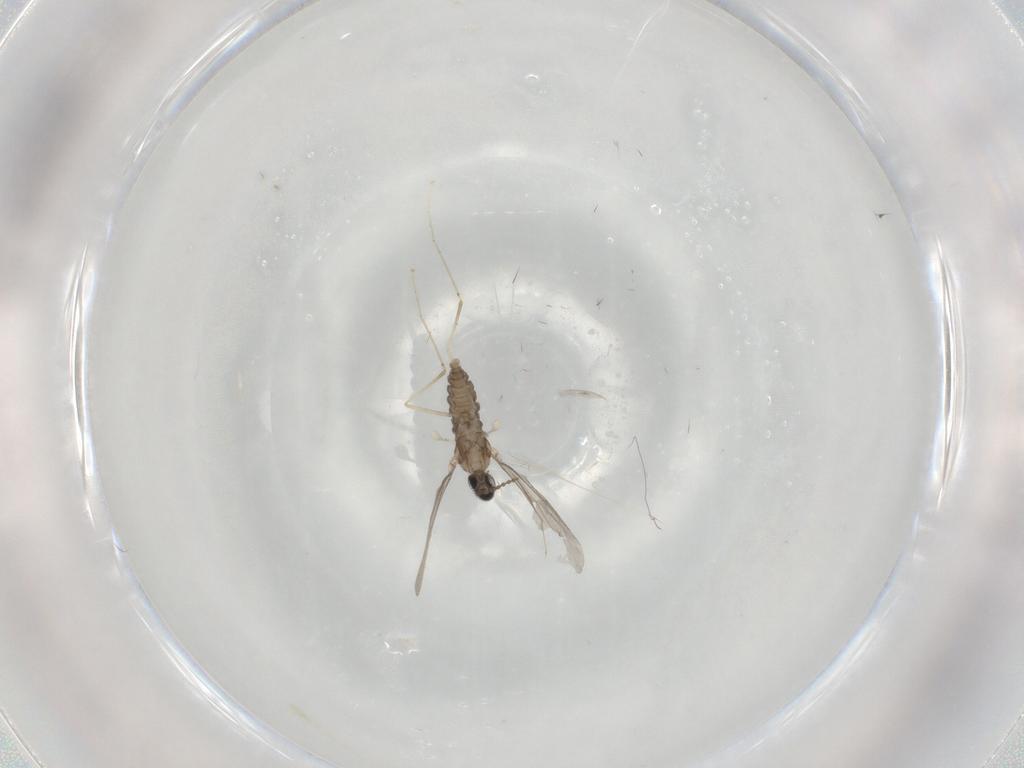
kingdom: Animalia
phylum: Arthropoda
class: Insecta
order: Diptera
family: Cecidomyiidae
